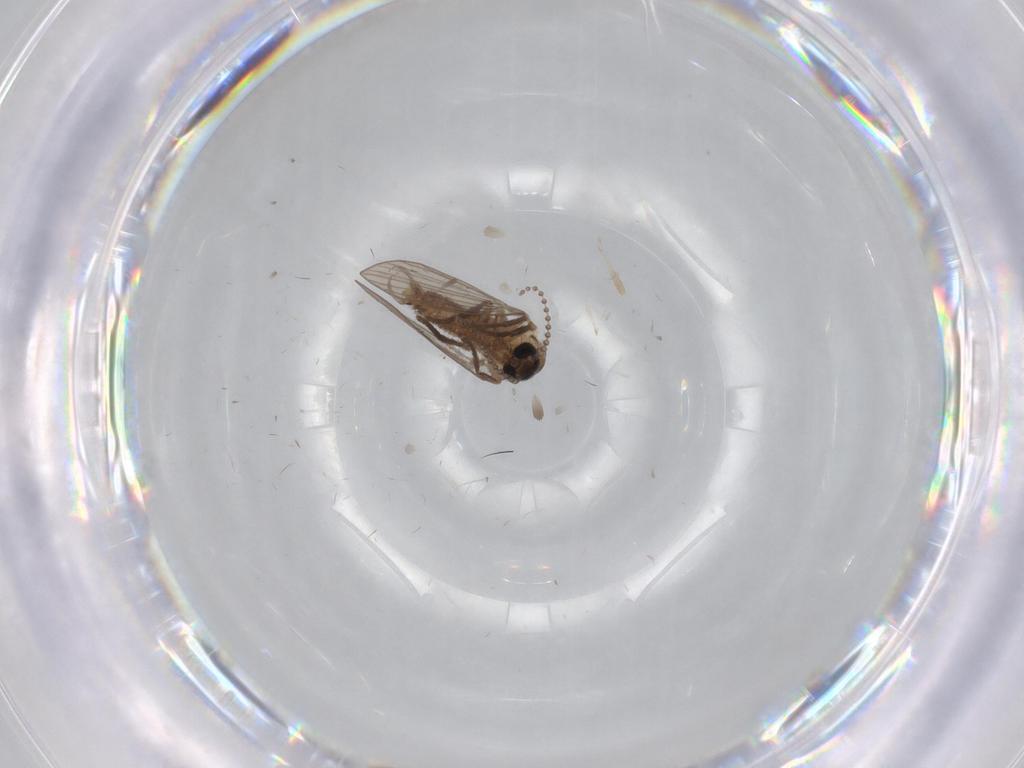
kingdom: Animalia
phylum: Arthropoda
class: Insecta
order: Diptera
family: Psychodidae
